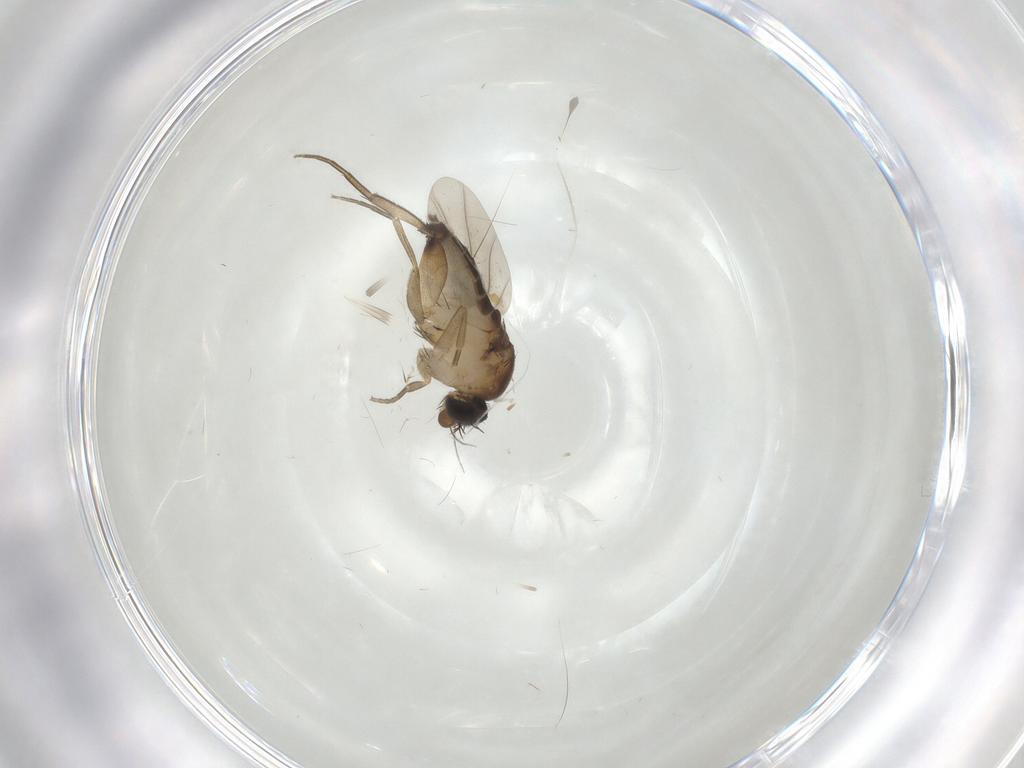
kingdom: Animalia
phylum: Arthropoda
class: Insecta
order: Diptera
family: Phoridae
